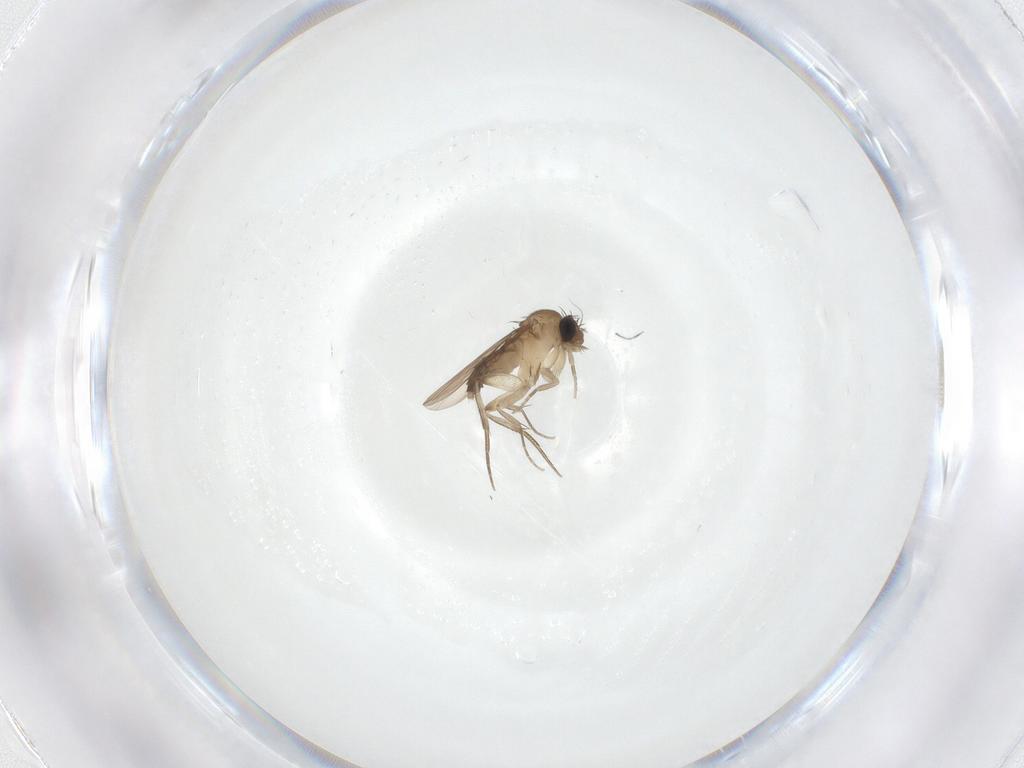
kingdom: Animalia
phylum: Arthropoda
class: Insecta
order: Diptera
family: Phoridae
